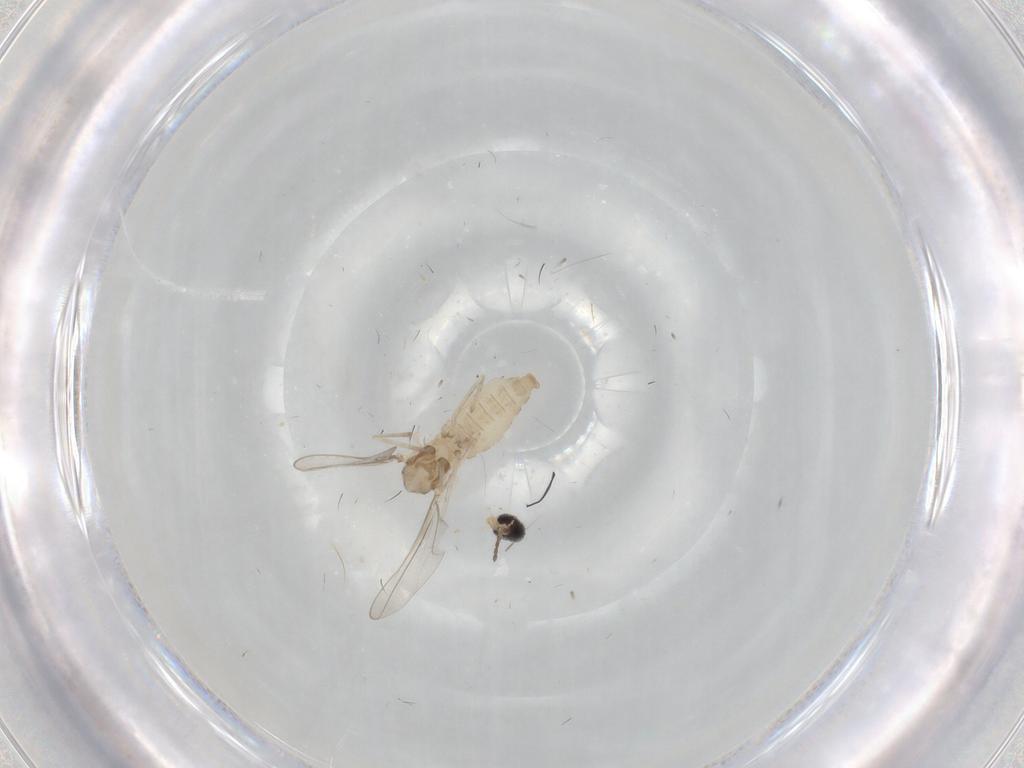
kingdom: Animalia
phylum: Arthropoda
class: Insecta
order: Diptera
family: Cecidomyiidae
